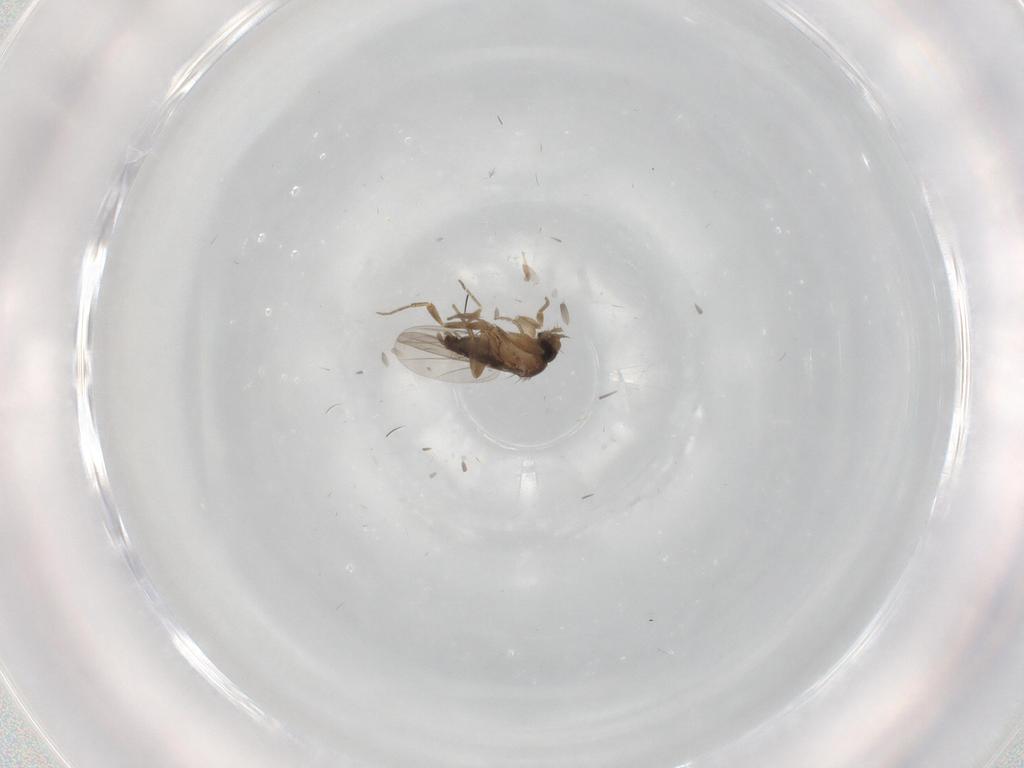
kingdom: Animalia
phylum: Arthropoda
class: Insecta
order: Diptera
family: Phoridae
